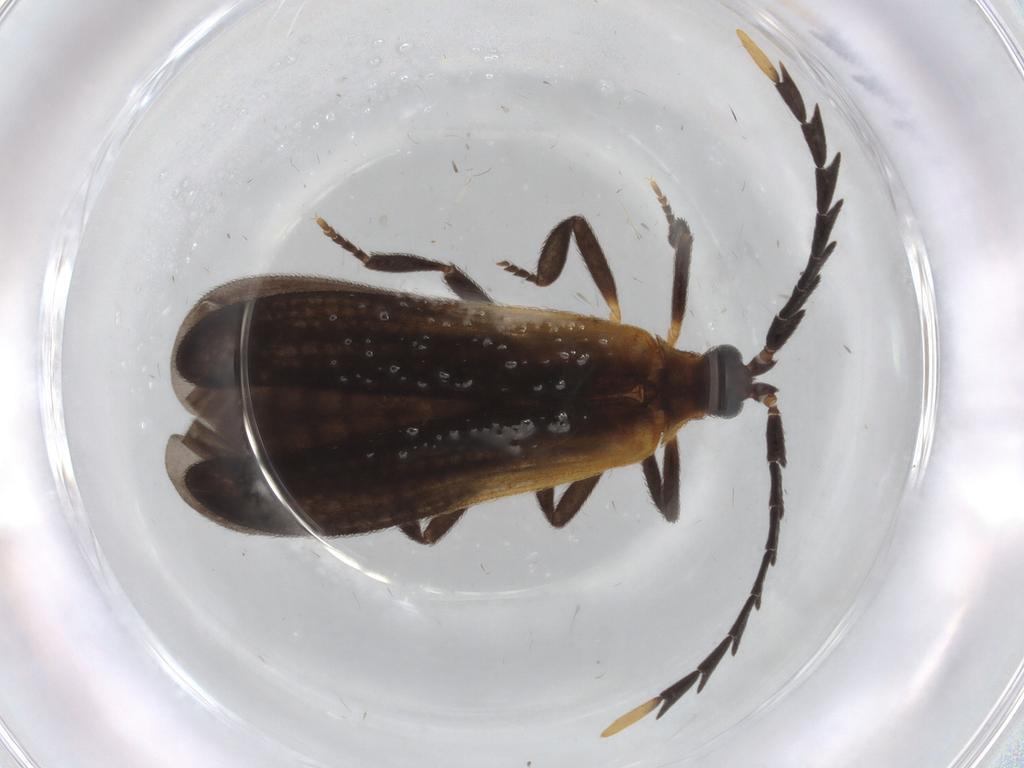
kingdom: Animalia
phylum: Arthropoda
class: Insecta
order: Coleoptera
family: Lycidae
